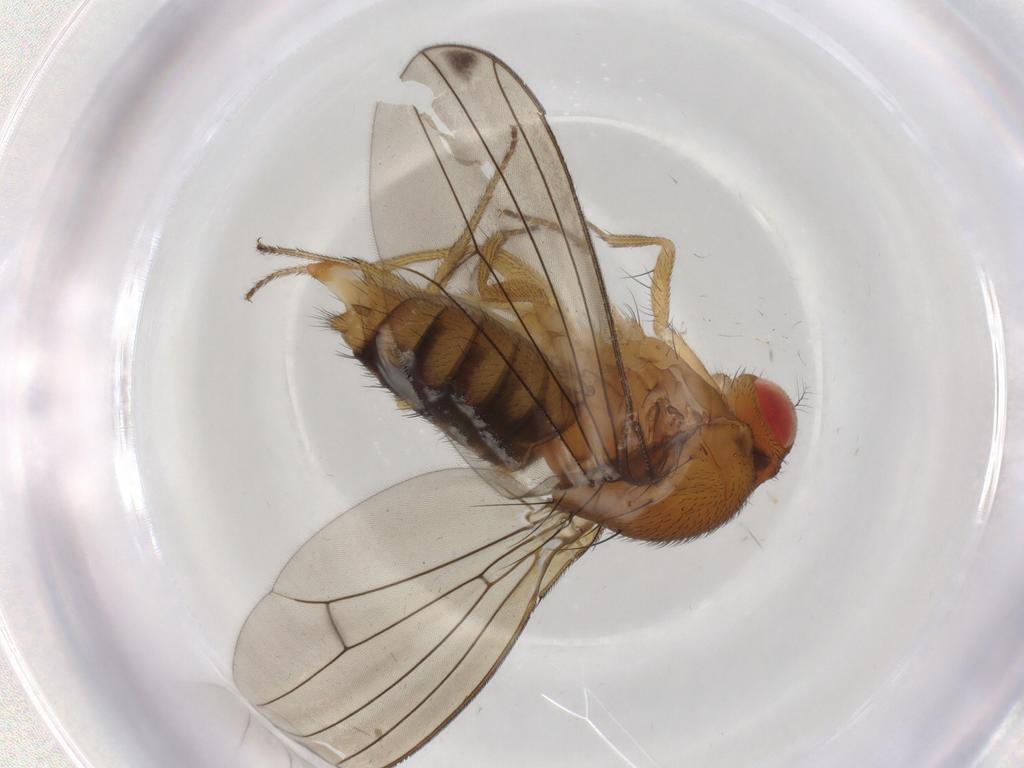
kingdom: Animalia
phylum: Arthropoda
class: Insecta
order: Diptera
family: Drosophilidae
